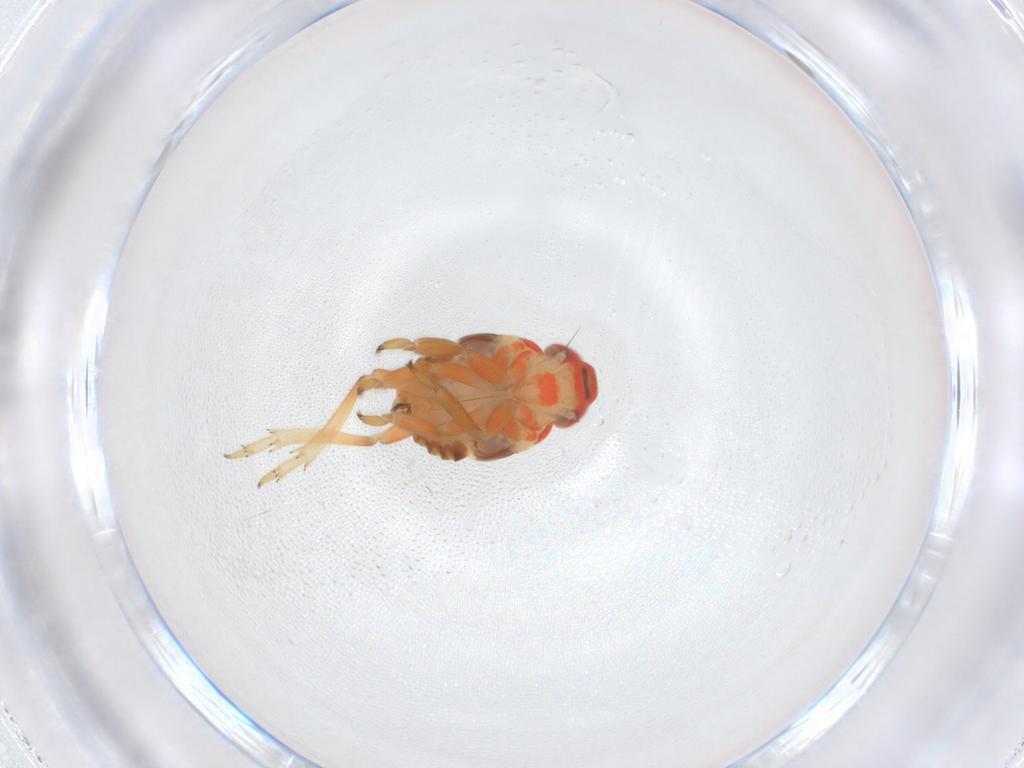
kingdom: Animalia
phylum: Arthropoda
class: Insecta
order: Hemiptera
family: Issidae
